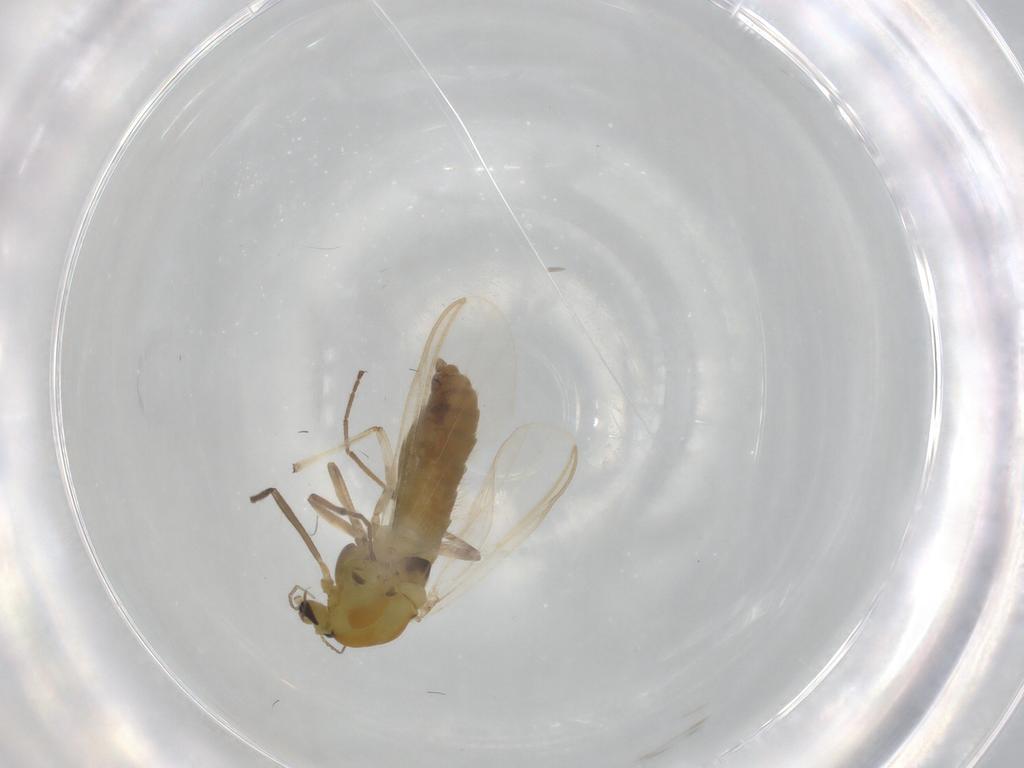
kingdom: Animalia
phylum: Arthropoda
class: Insecta
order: Diptera
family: Chironomidae
